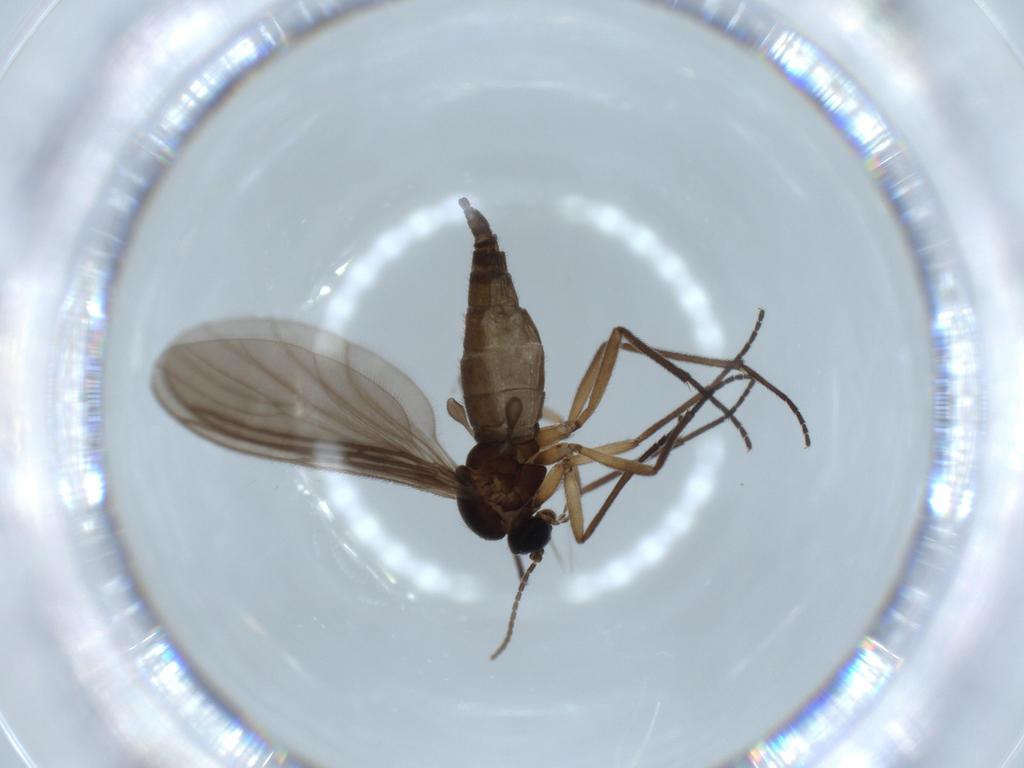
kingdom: Animalia
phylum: Arthropoda
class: Insecta
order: Diptera
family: Sciaridae
